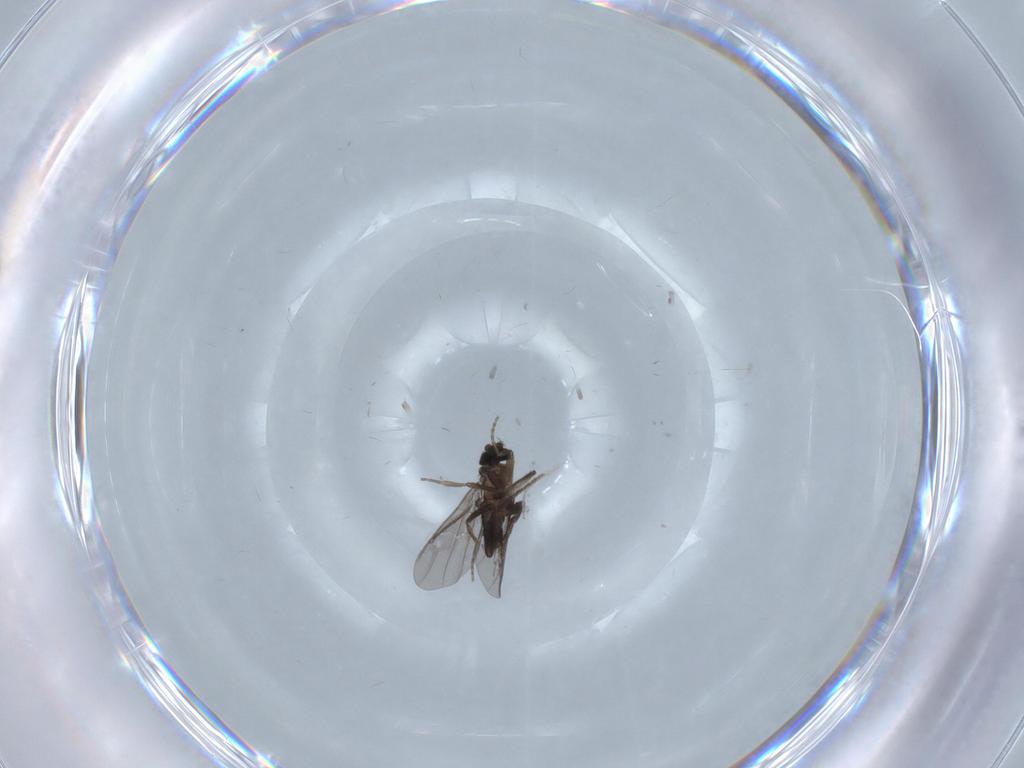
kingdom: Animalia
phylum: Arthropoda
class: Insecta
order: Diptera
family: Phoridae
